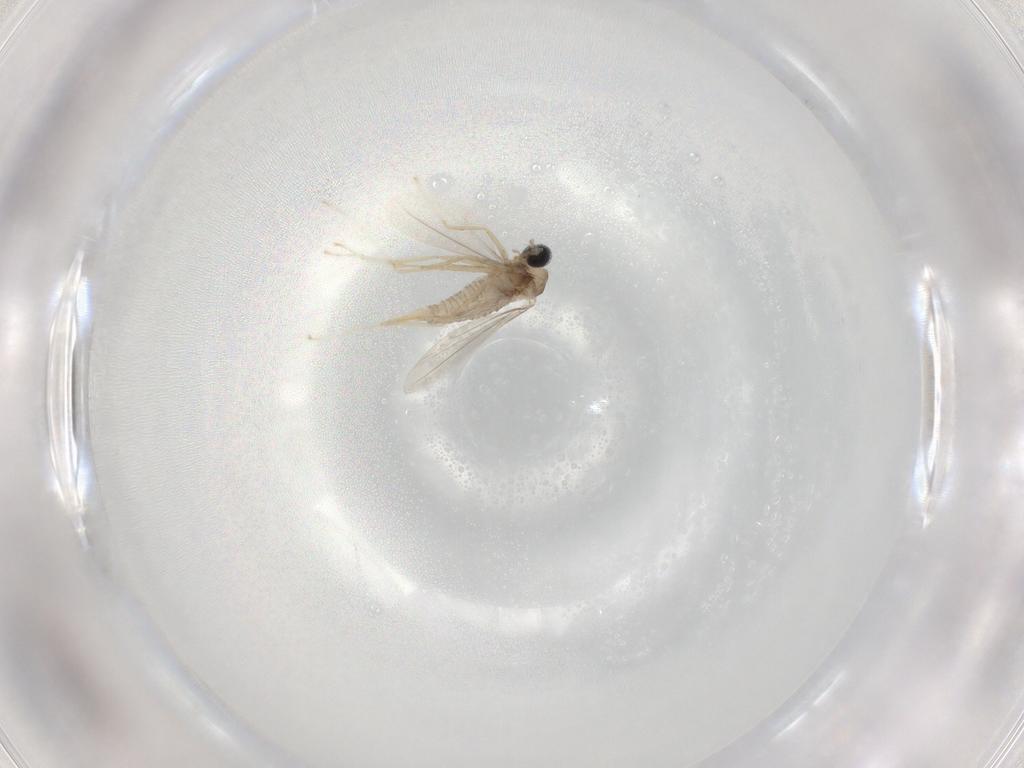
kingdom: Animalia
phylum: Arthropoda
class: Insecta
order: Diptera
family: Cecidomyiidae
